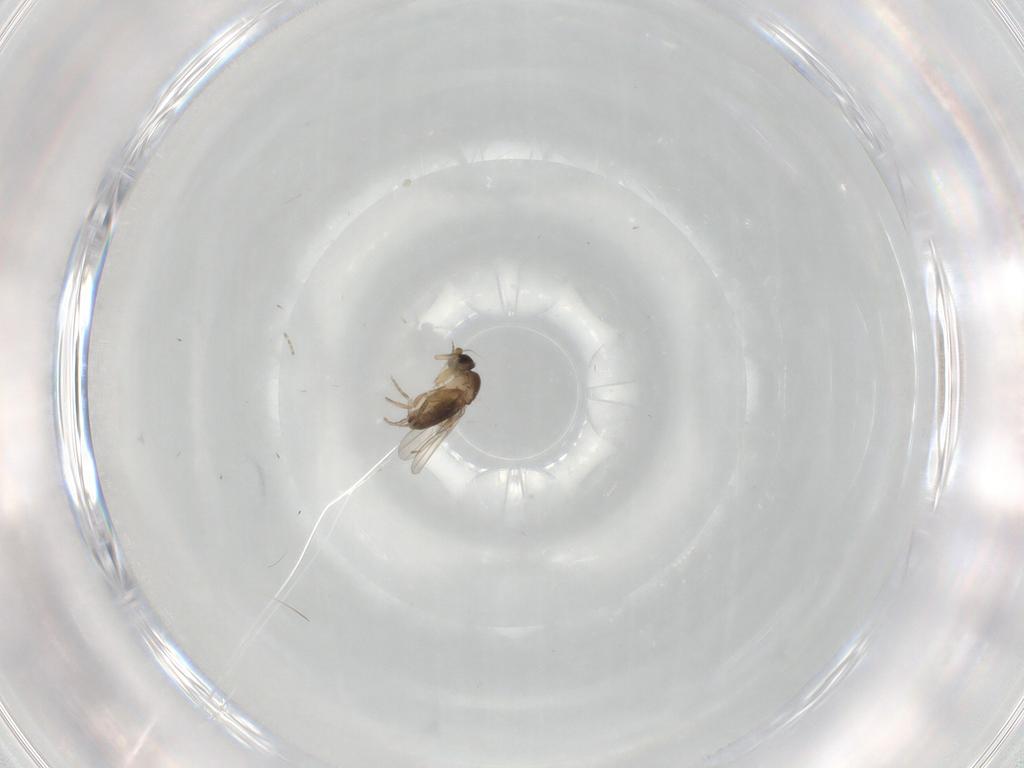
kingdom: Animalia
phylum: Arthropoda
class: Insecta
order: Diptera
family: Phoridae
